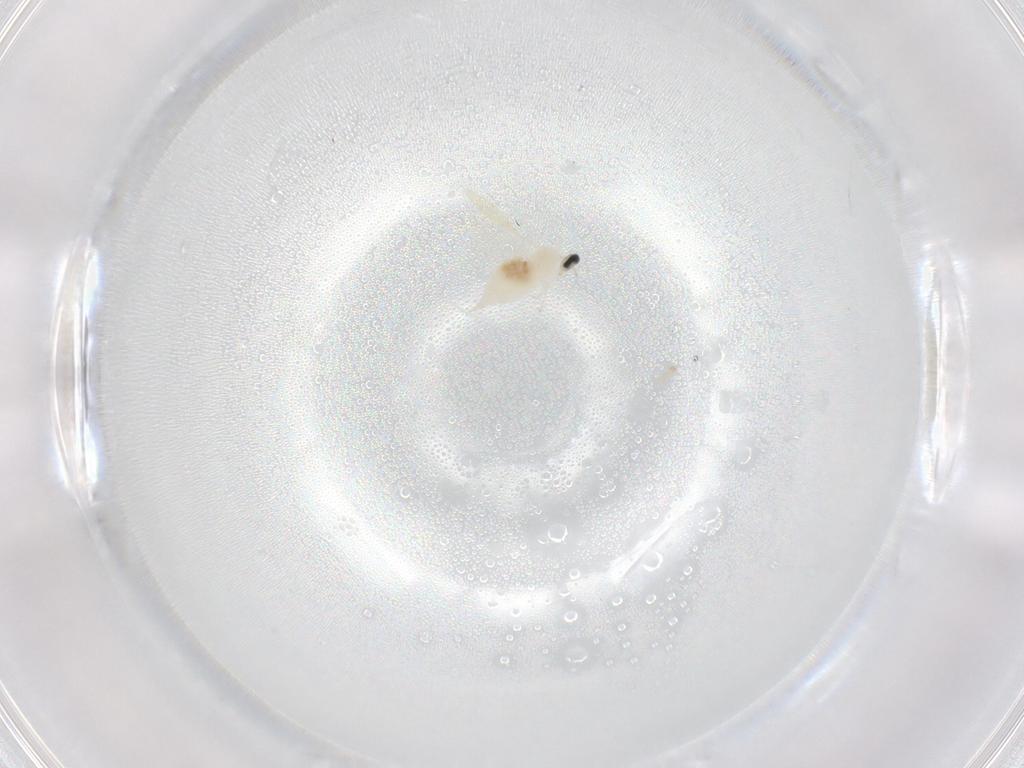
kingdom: Animalia
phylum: Arthropoda
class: Insecta
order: Diptera
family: Cecidomyiidae
